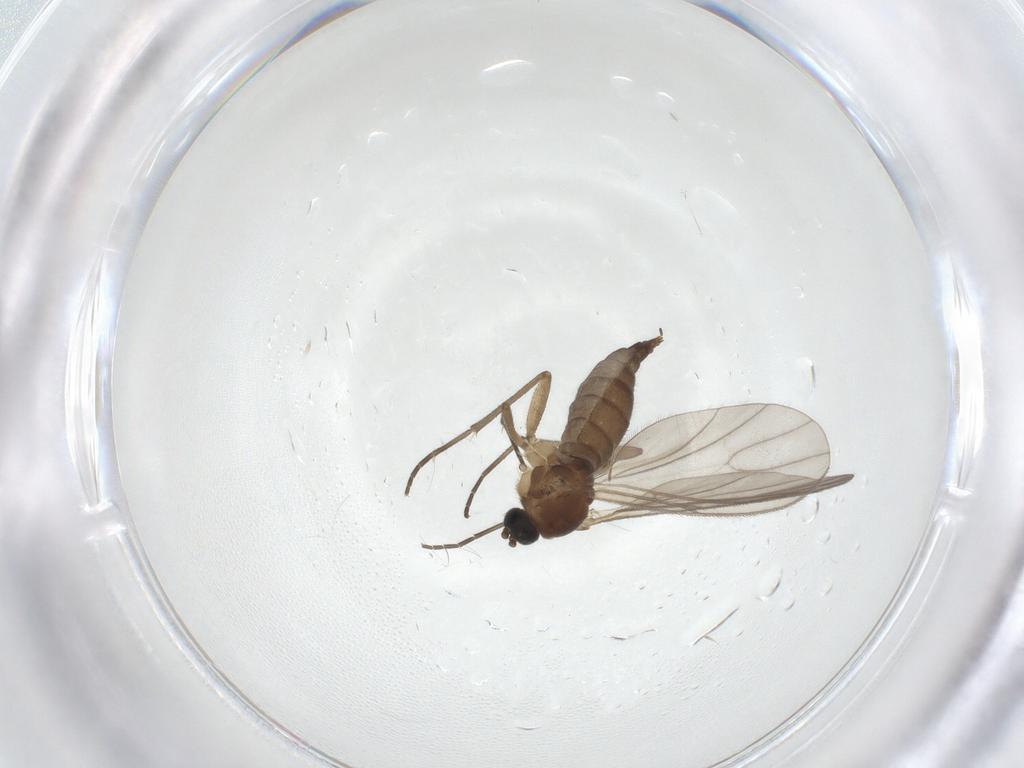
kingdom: Animalia
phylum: Arthropoda
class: Insecta
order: Diptera
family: Sciaridae
